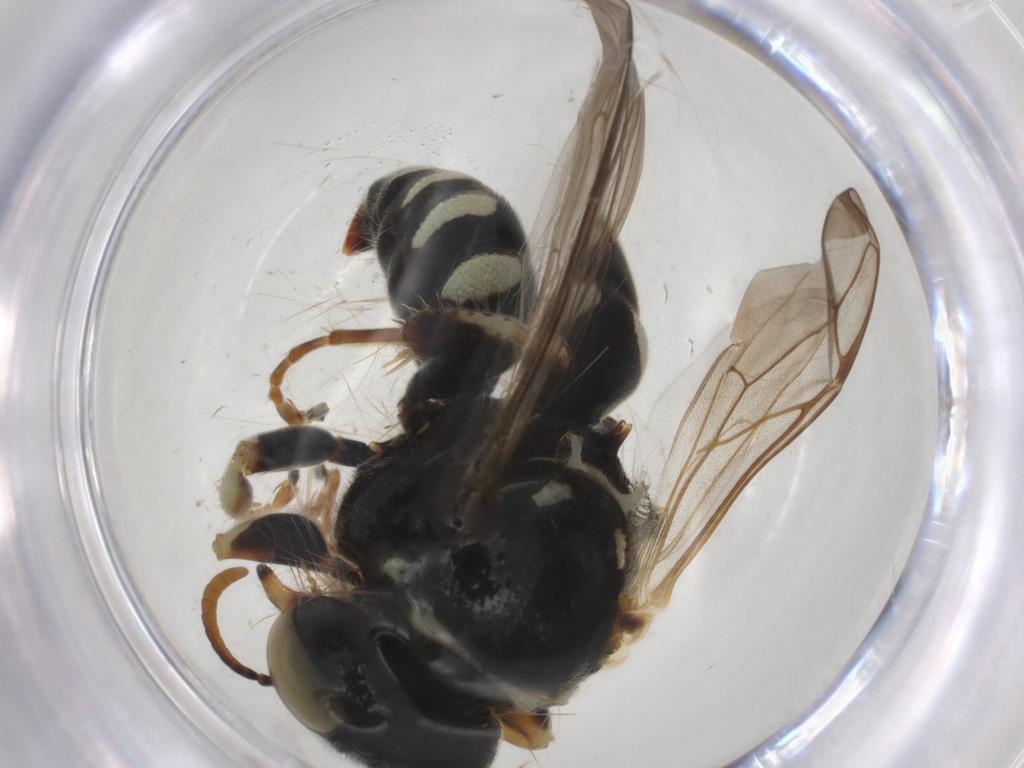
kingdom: Animalia
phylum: Arthropoda
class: Insecta
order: Hymenoptera
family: Crabronidae
